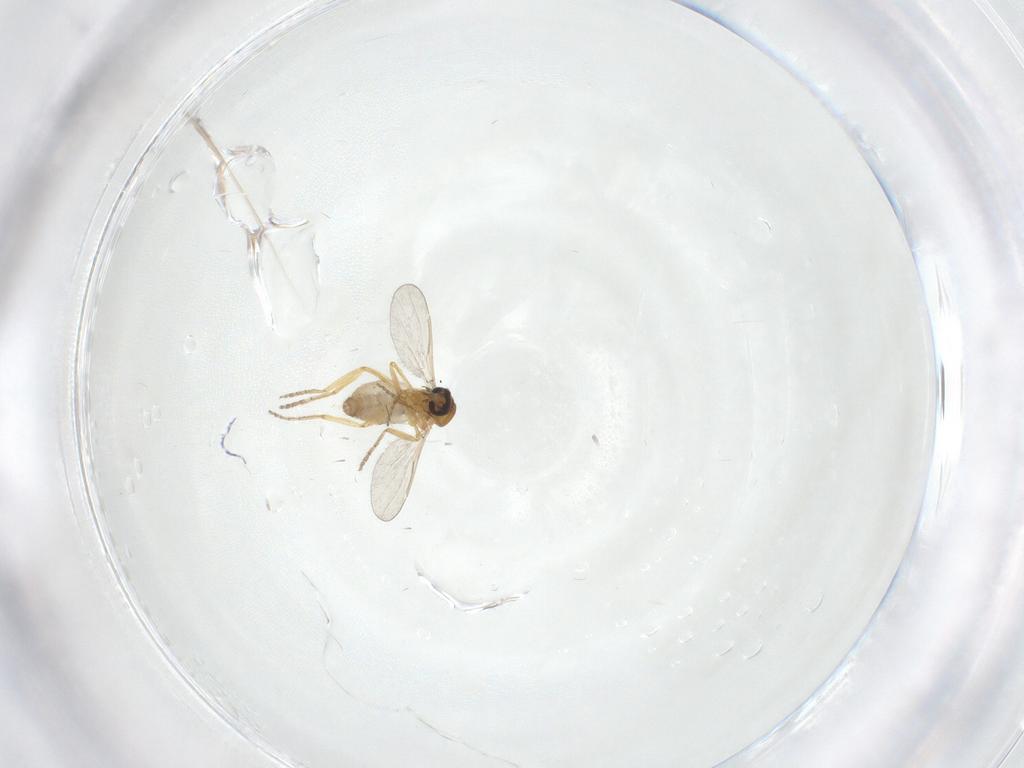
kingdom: Animalia
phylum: Arthropoda
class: Insecta
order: Diptera
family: Ceratopogonidae
